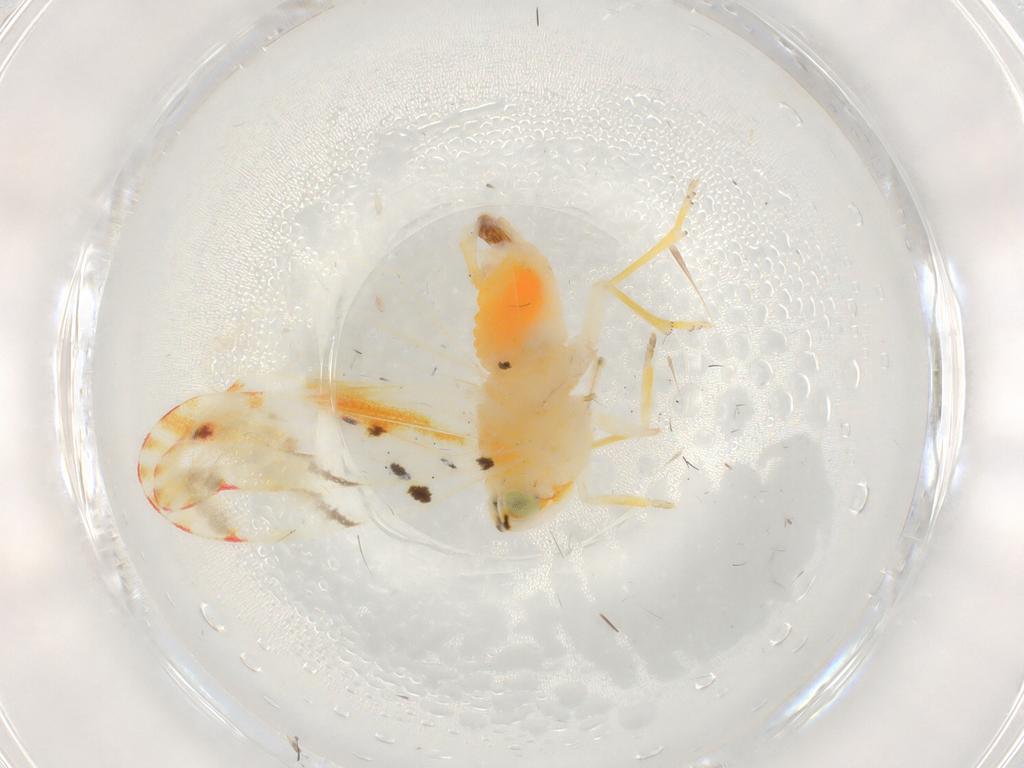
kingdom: Animalia
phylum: Arthropoda
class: Insecta
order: Hemiptera
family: Derbidae
